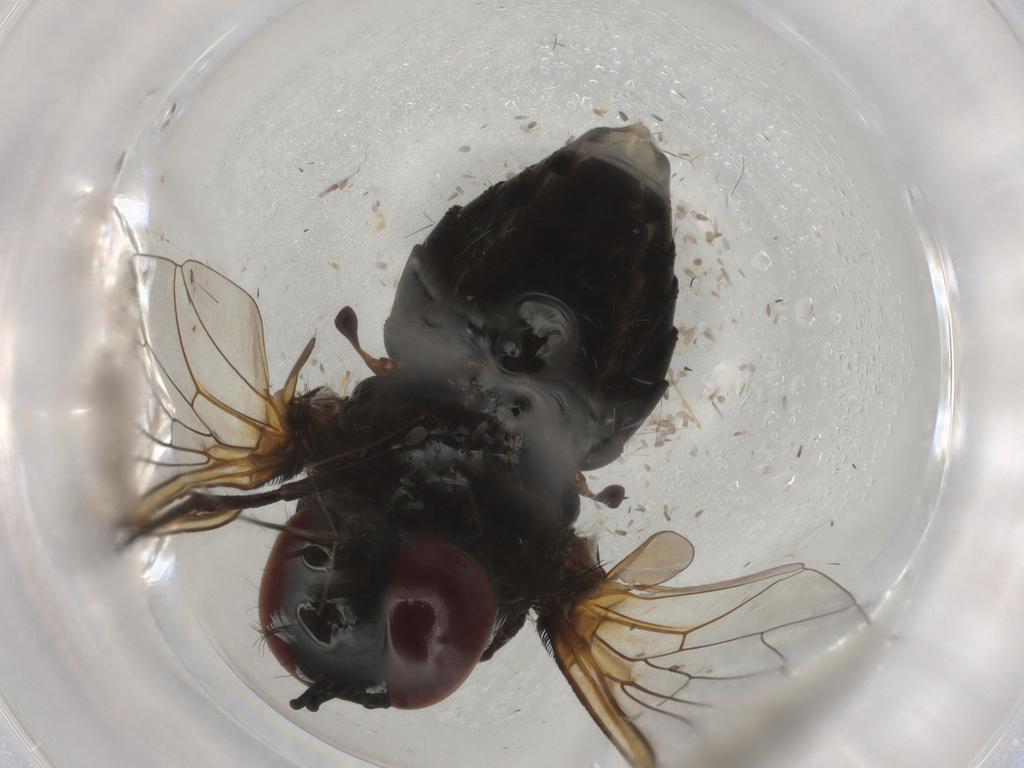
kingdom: Animalia
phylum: Arthropoda
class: Insecta
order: Diptera
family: Bombyliidae
